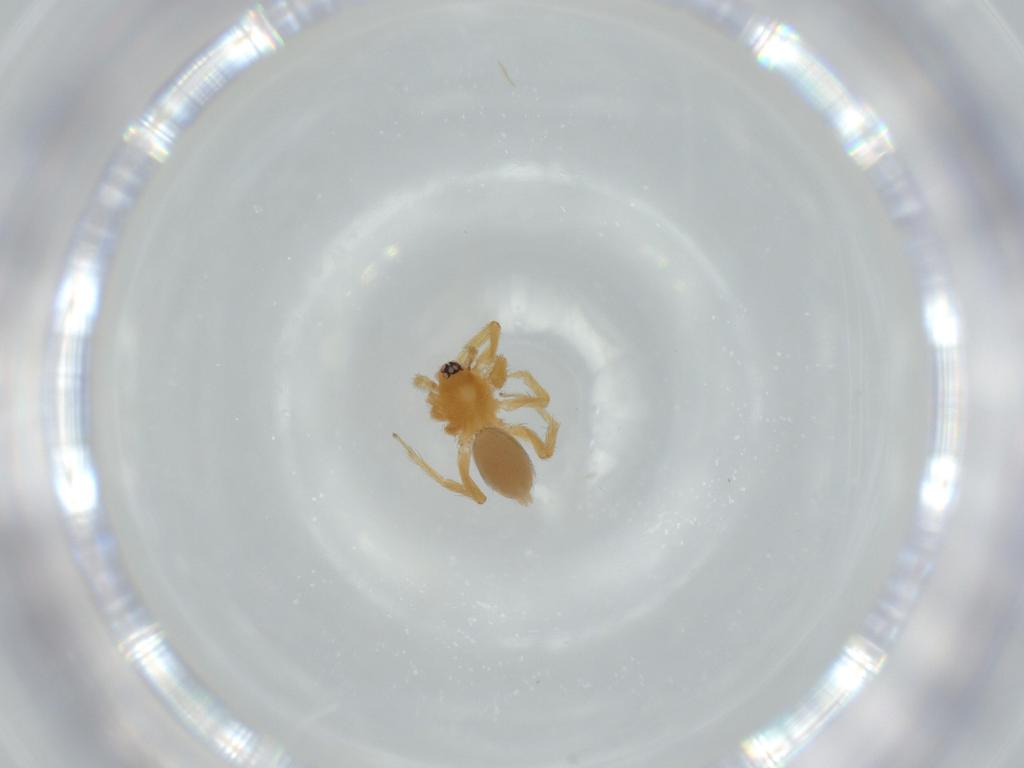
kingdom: Animalia
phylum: Arthropoda
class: Arachnida
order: Araneae
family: Oonopidae
